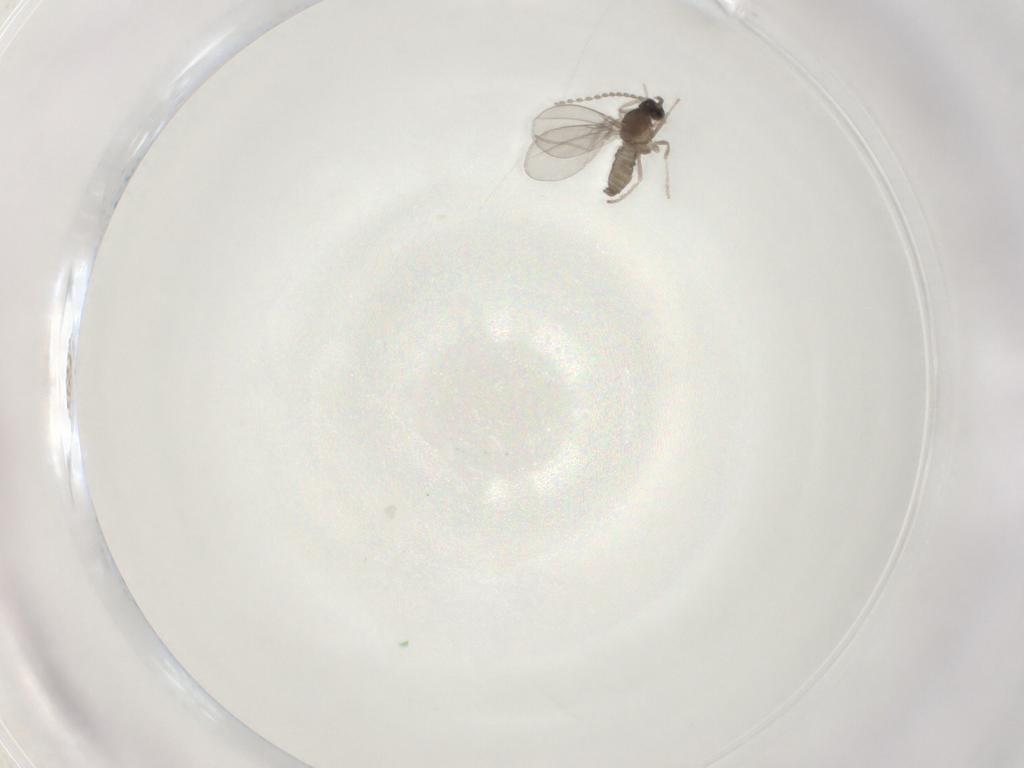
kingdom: Animalia
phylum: Arthropoda
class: Insecta
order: Diptera
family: Cecidomyiidae
